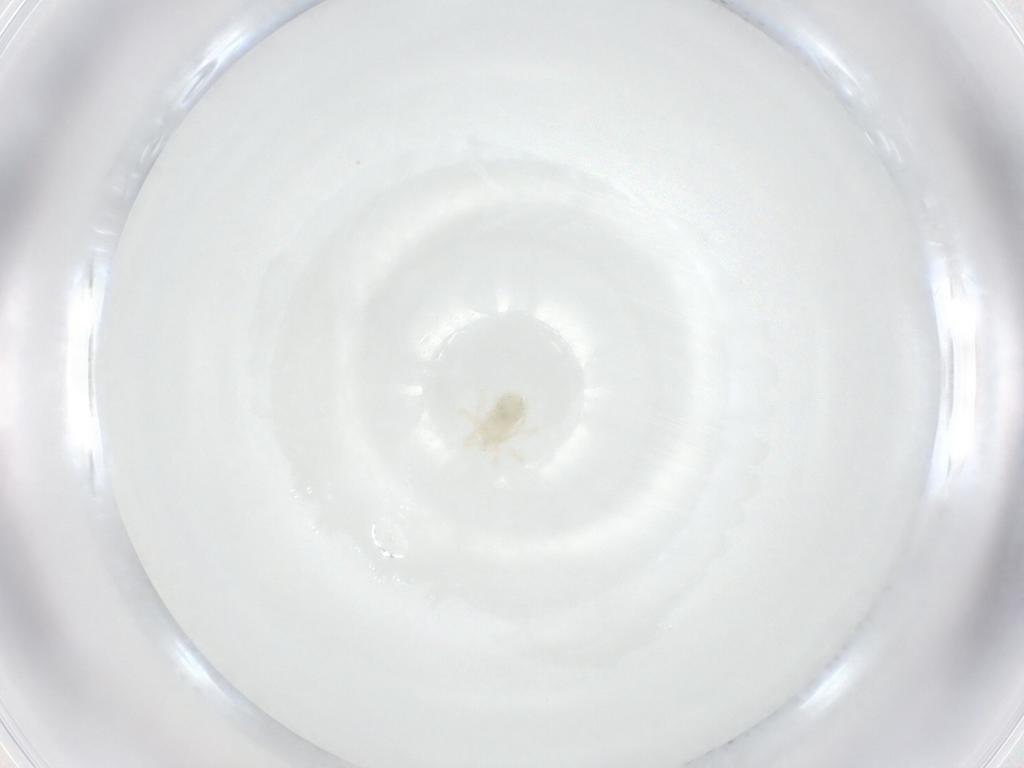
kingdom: Animalia
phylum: Arthropoda
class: Arachnida
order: Trombidiformes
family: Anystidae
